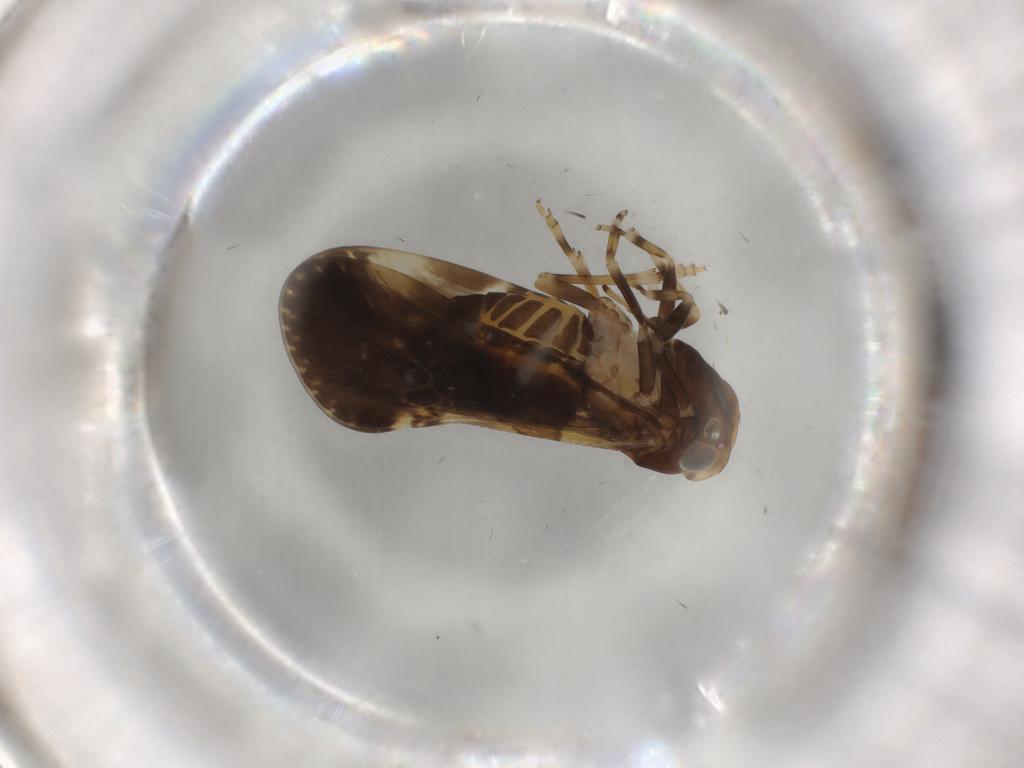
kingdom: Animalia
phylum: Arthropoda
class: Insecta
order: Hemiptera
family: Cixiidae
